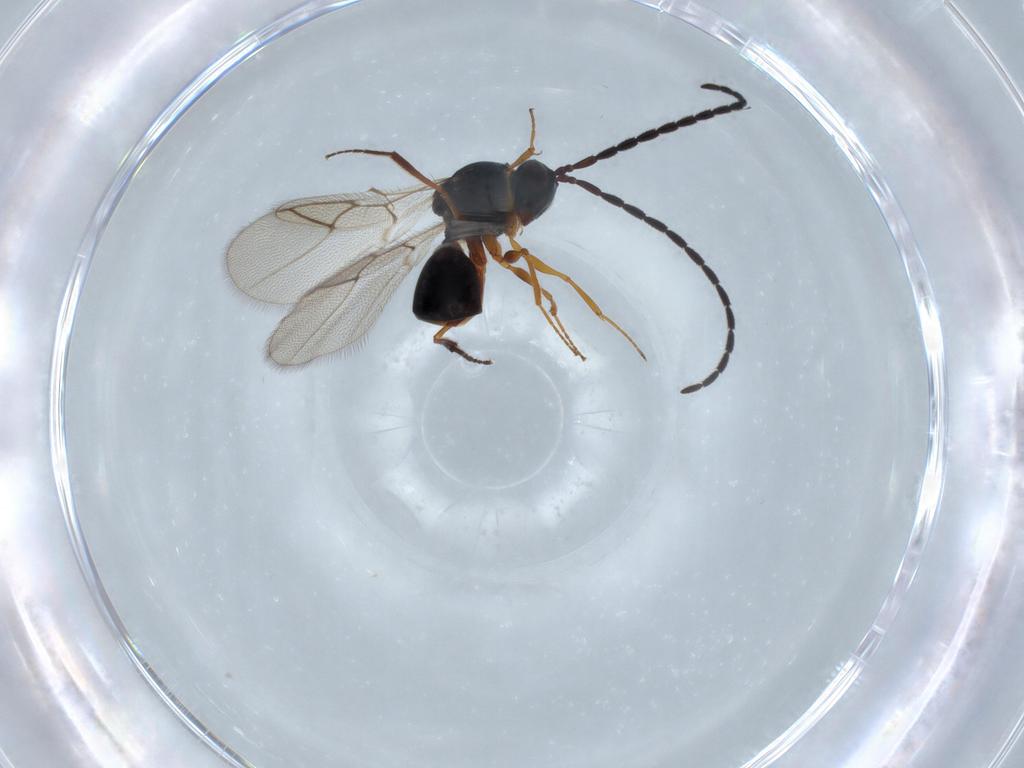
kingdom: Animalia
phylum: Arthropoda
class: Insecta
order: Hymenoptera
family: Figitidae
